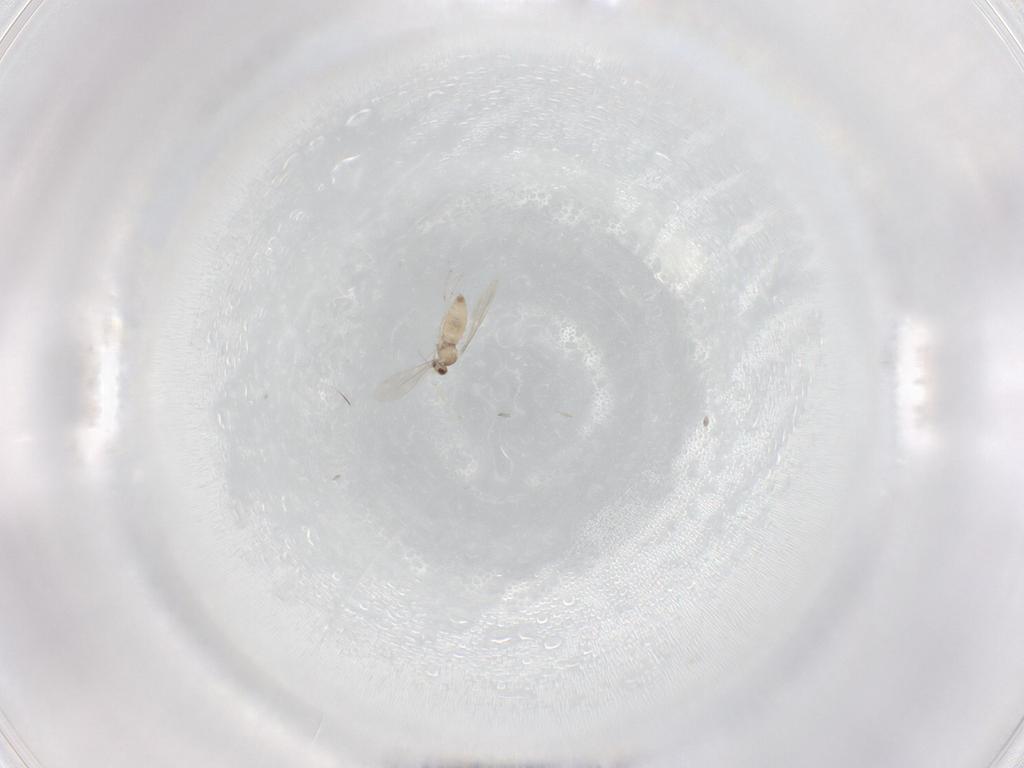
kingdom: Animalia
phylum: Arthropoda
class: Insecta
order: Diptera
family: Cecidomyiidae
